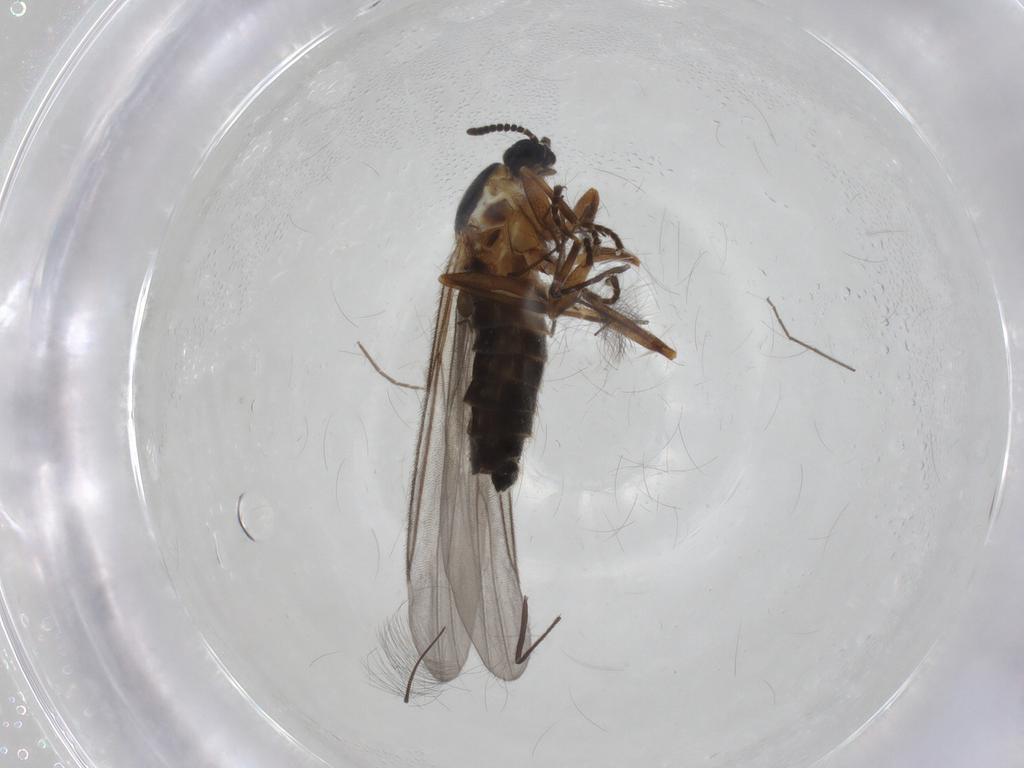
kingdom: Animalia
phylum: Arthropoda
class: Insecta
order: Diptera
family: Scatopsidae
